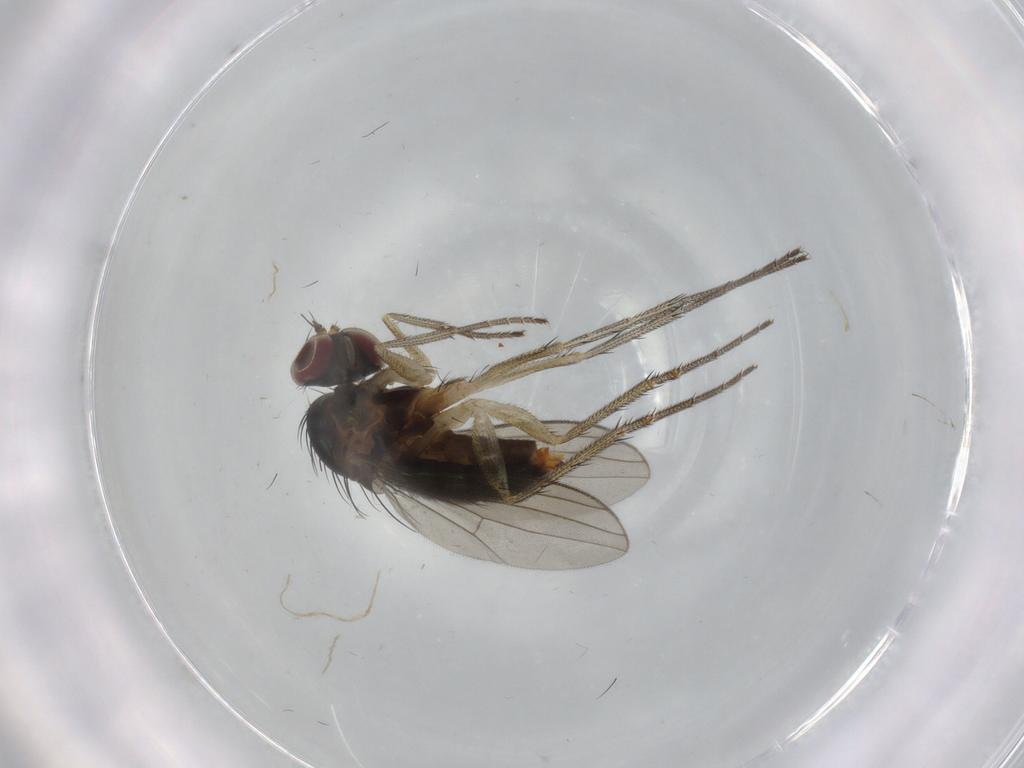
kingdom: Animalia
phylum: Arthropoda
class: Insecta
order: Diptera
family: Dolichopodidae
